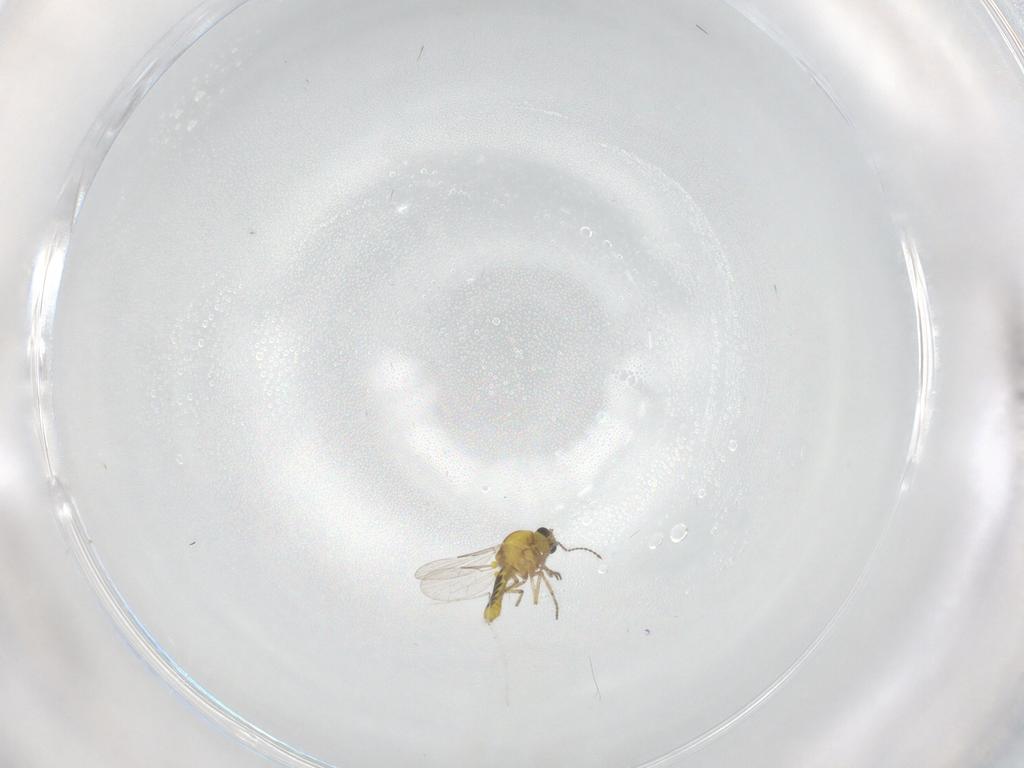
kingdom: Animalia
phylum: Arthropoda
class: Insecta
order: Diptera
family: Ceratopogonidae
